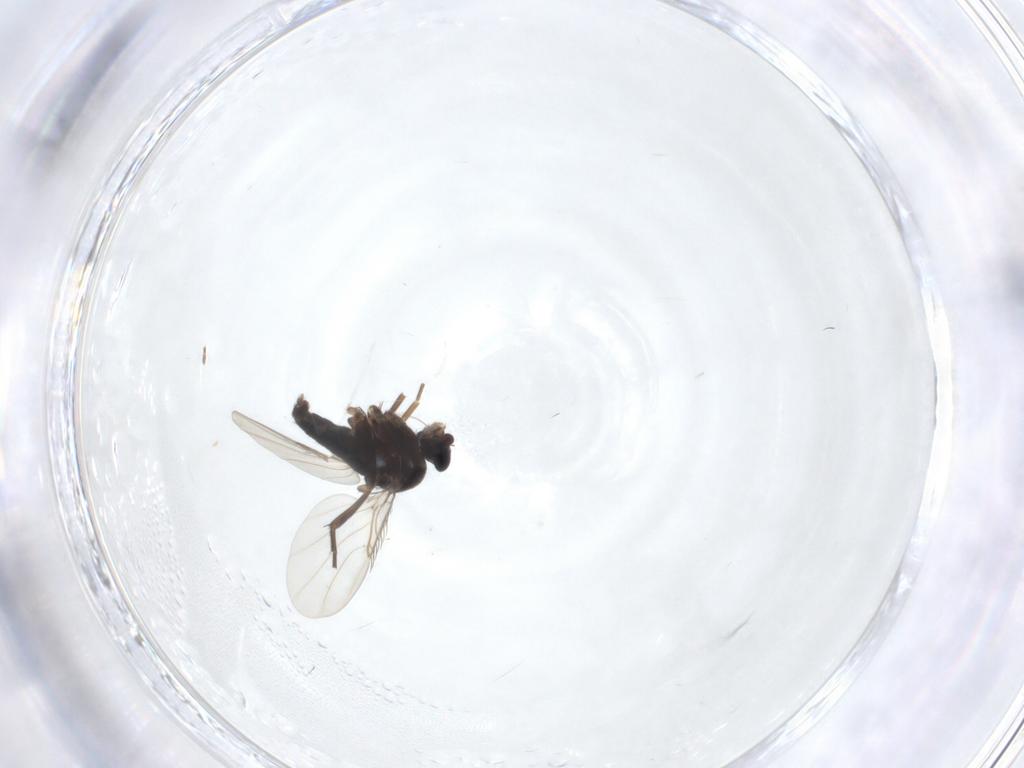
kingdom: Animalia
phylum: Arthropoda
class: Insecta
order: Diptera
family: Phoridae
